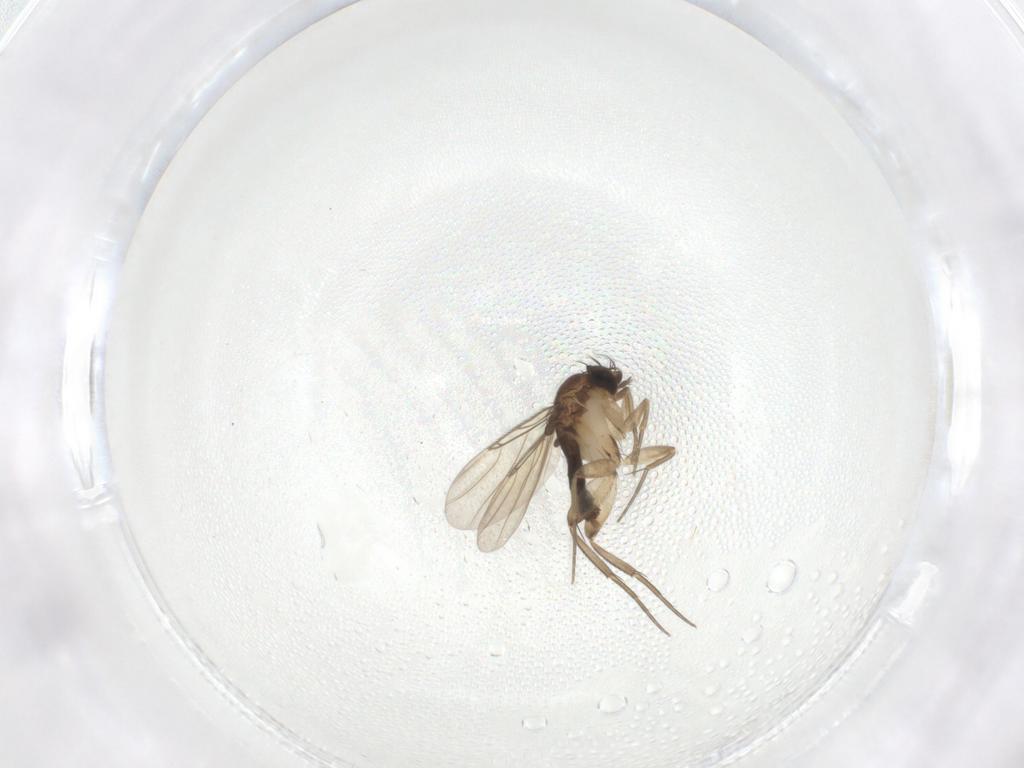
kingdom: Animalia
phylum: Arthropoda
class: Insecta
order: Diptera
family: Phoridae
